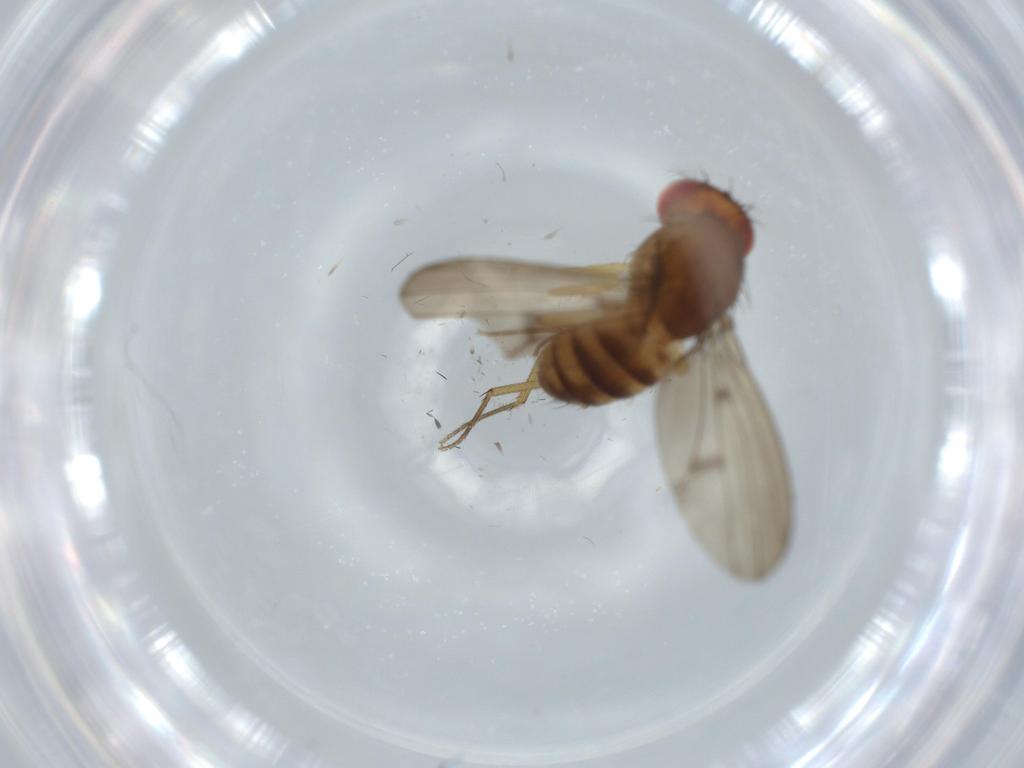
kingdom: Animalia
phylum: Arthropoda
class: Insecta
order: Diptera
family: Drosophilidae
